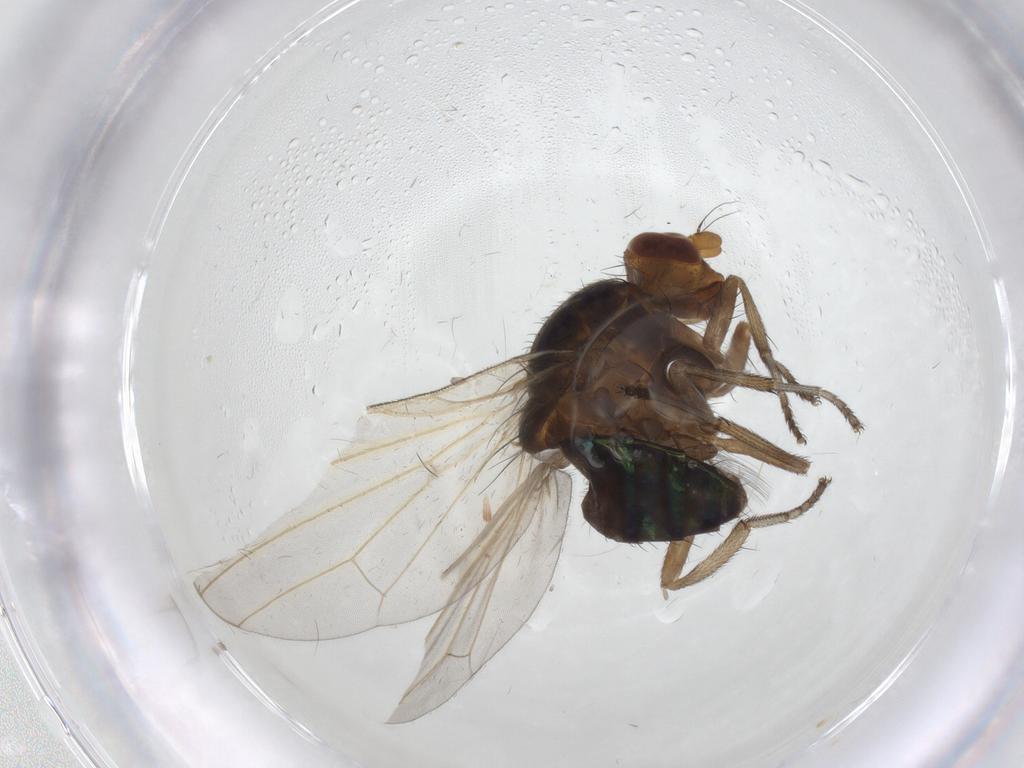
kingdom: Animalia
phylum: Arthropoda
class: Insecta
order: Diptera
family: Lauxaniidae
